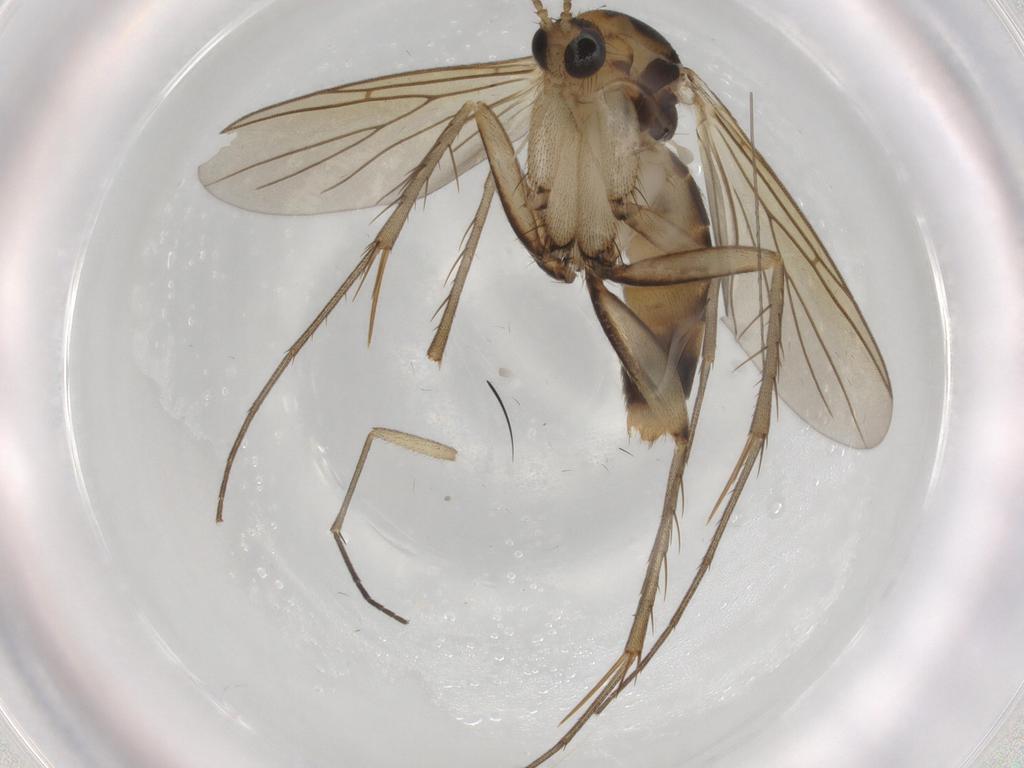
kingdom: Animalia
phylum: Arthropoda
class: Insecta
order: Diptera
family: Mycetophilidae
